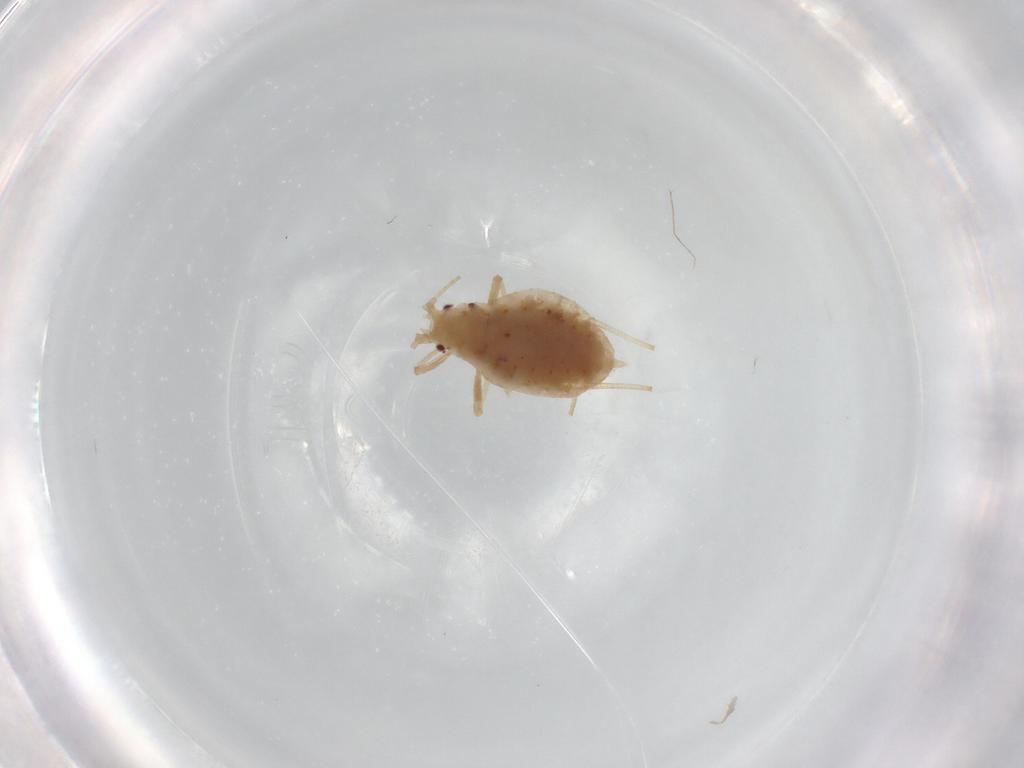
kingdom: Animalia
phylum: Arthropoda
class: Insecta
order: Hemiptera
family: Aphididae
